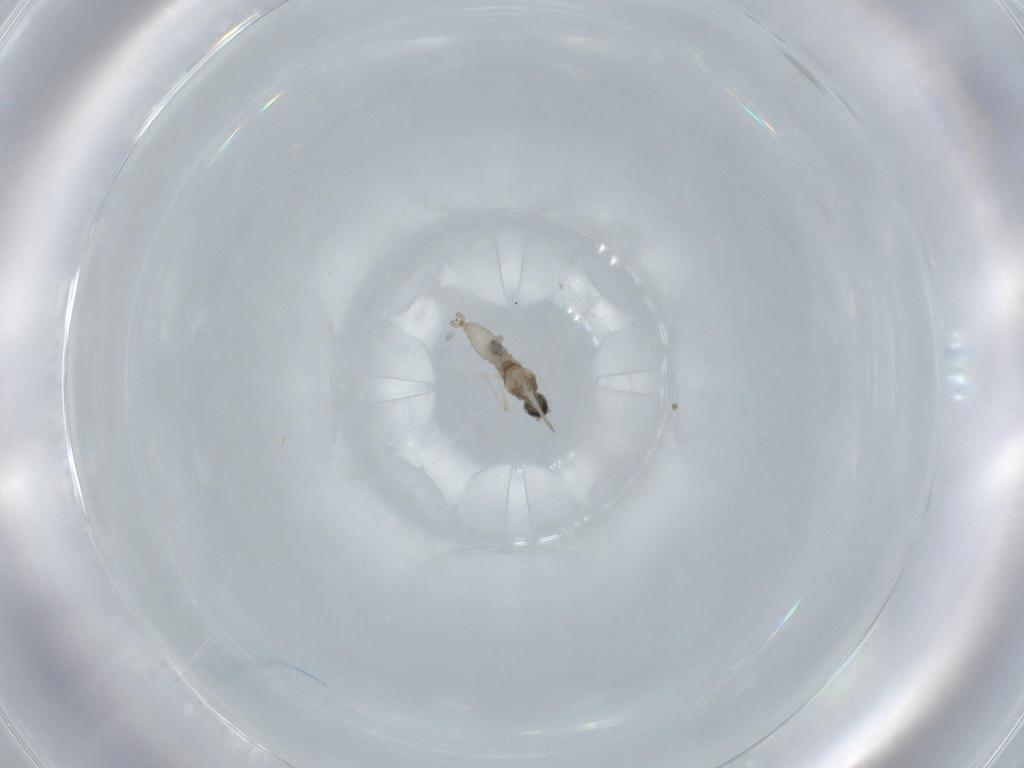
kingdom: Animalia
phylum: Arthropoda
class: Insecta
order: Diptera
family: Cecidomyiidae
